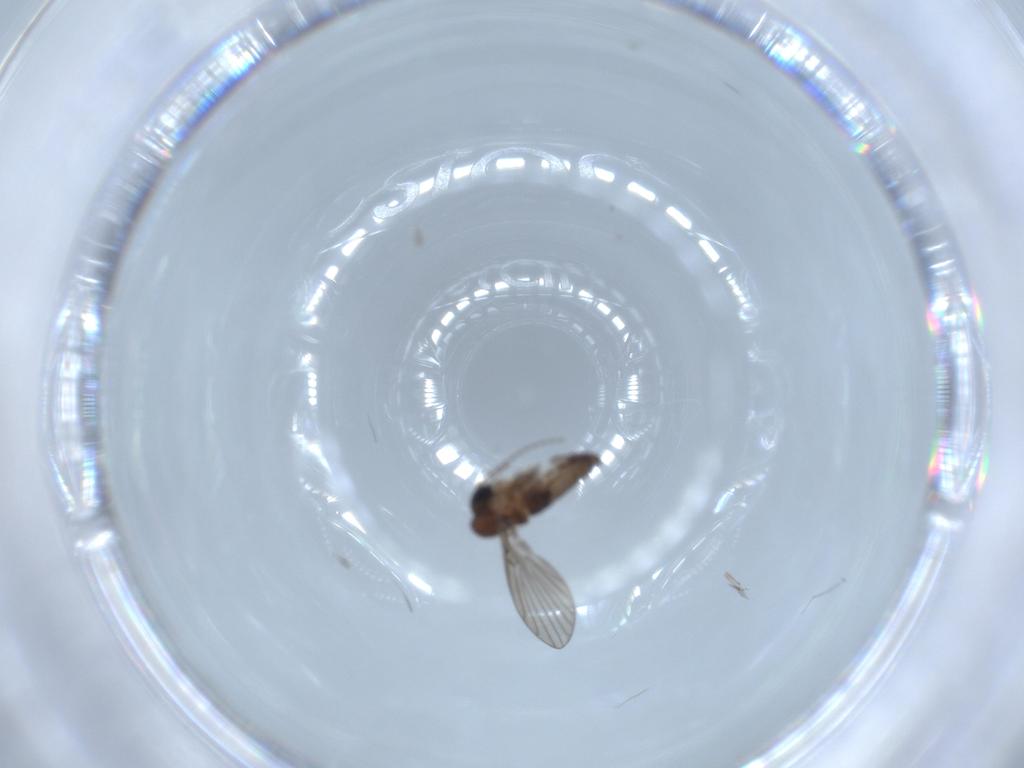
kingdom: Animalia
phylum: Arthropoda
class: Insecta
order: Diptera
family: Psychodidae
